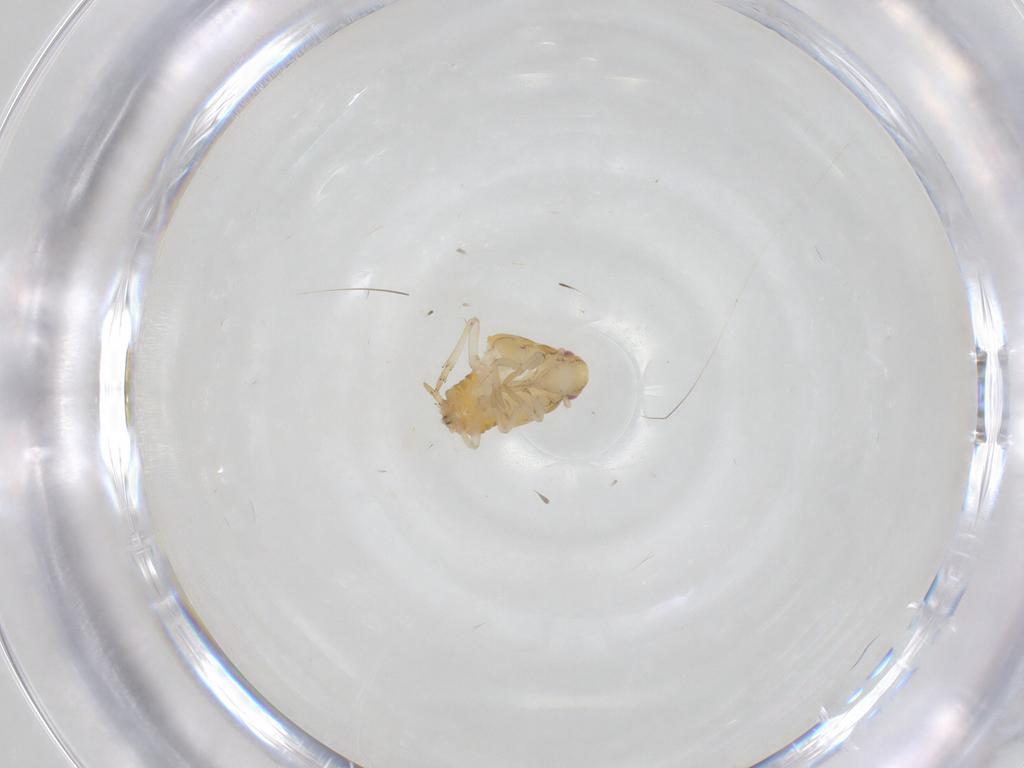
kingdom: Animalia
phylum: Arthropoda
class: Insecta
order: Hemiptera
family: Ricaniidae
